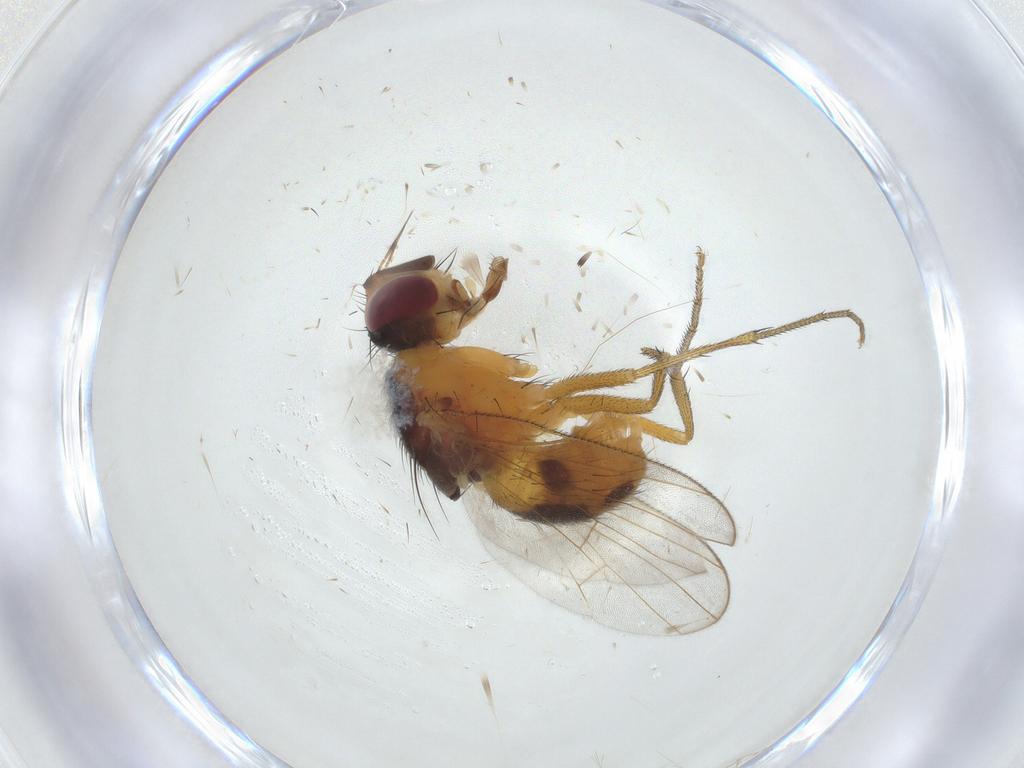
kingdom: Animalia
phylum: Arthropoda
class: Insecta
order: Diptera
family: Muscidae
